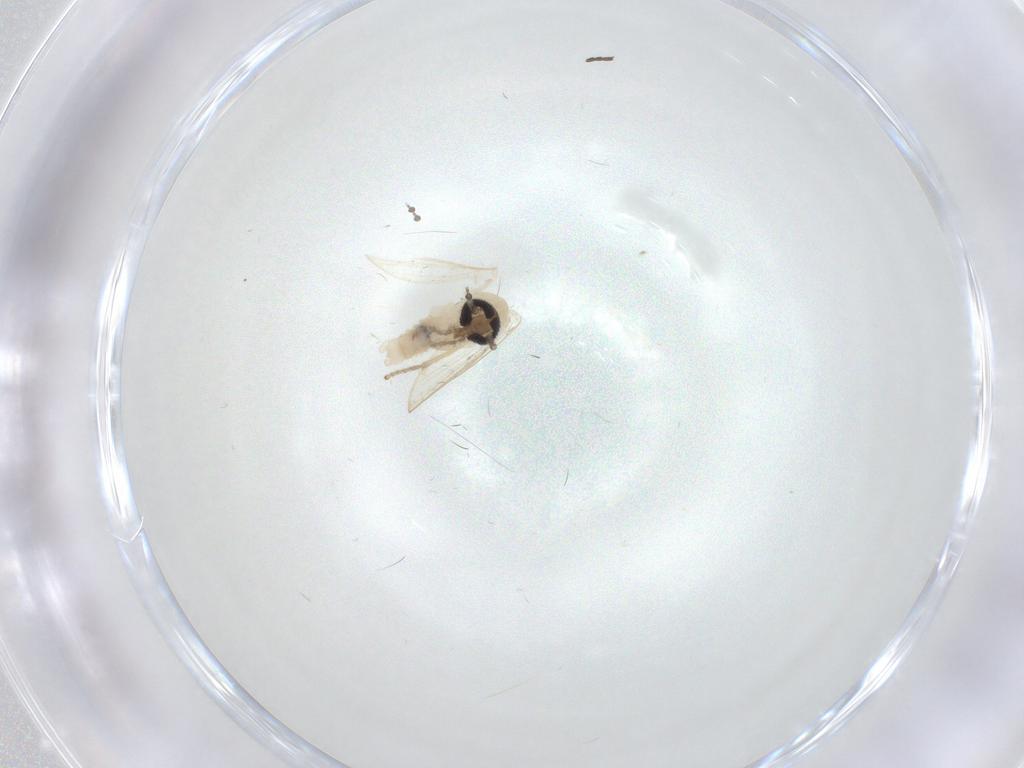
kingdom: Animalia
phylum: Arthropoda
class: Insecta
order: Diptera
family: Psychodidae
